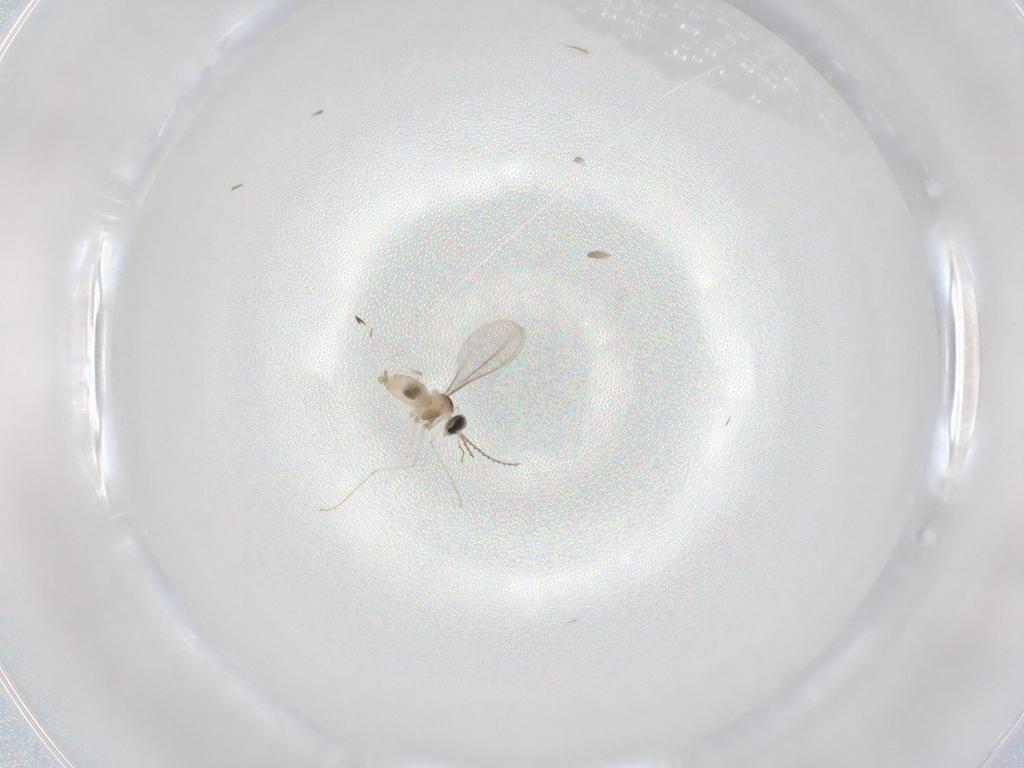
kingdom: Animalia
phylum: Arthropoda
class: Insecta
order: Diptera
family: Cecidomyiidae
